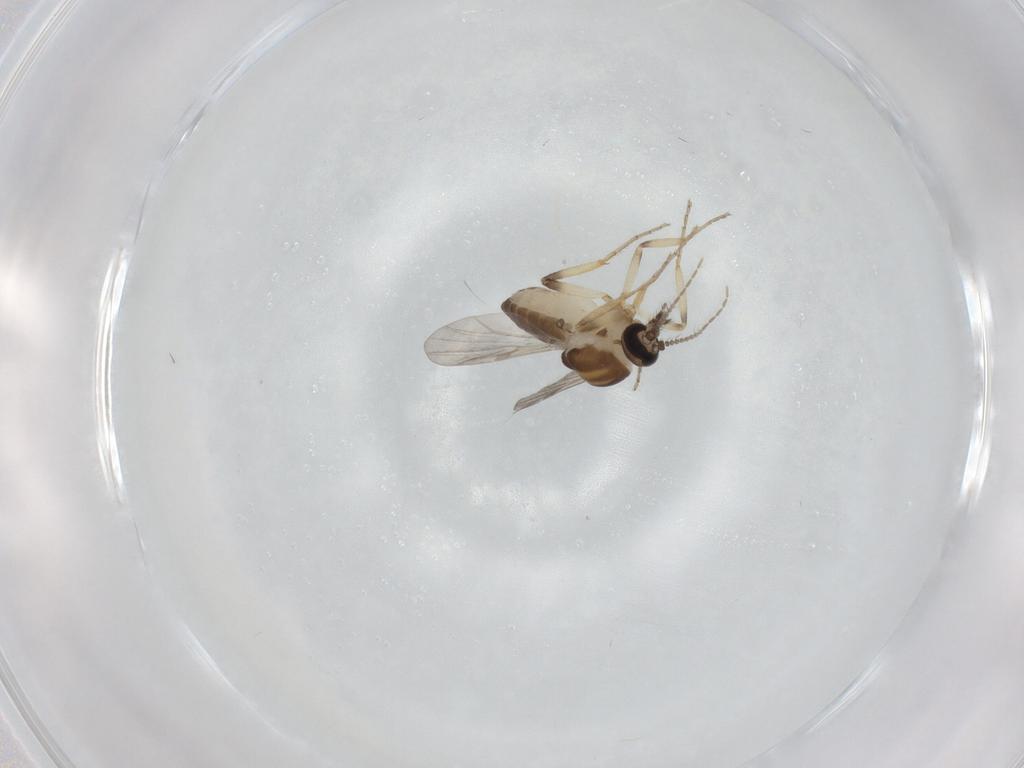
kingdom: Animalia
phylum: Arthropoda
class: Insecta
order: Diptera
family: Ceratopogonidae
